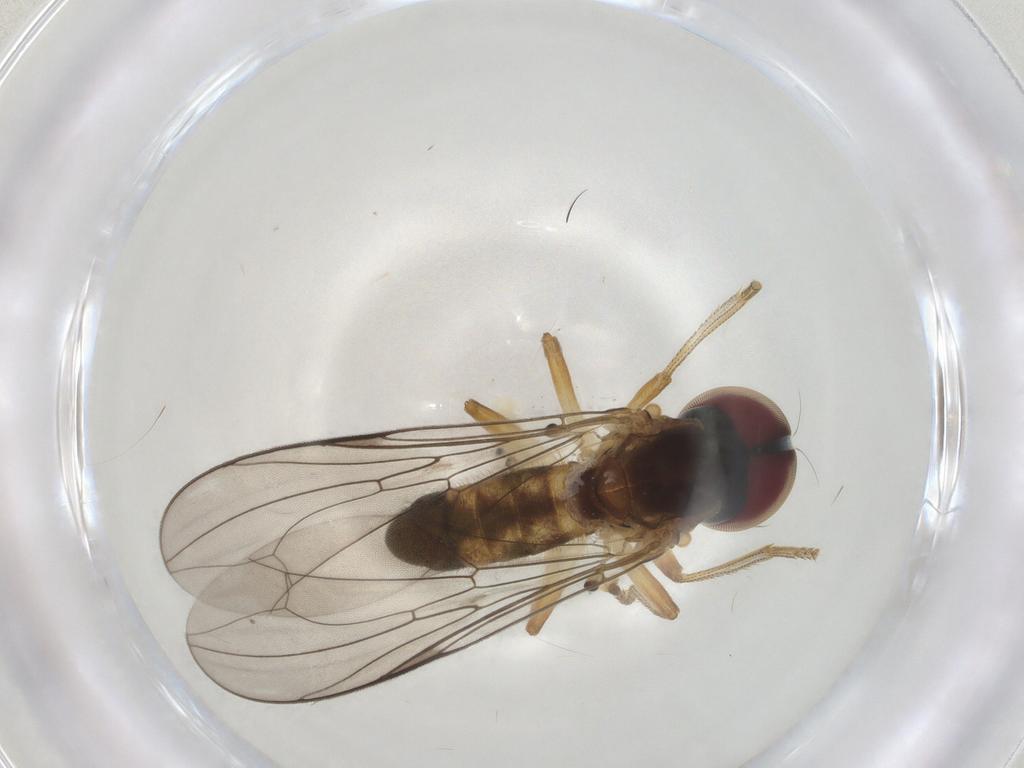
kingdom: Animalia
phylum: Arthropoda
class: Insecta
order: Diptera
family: Hybotidae
